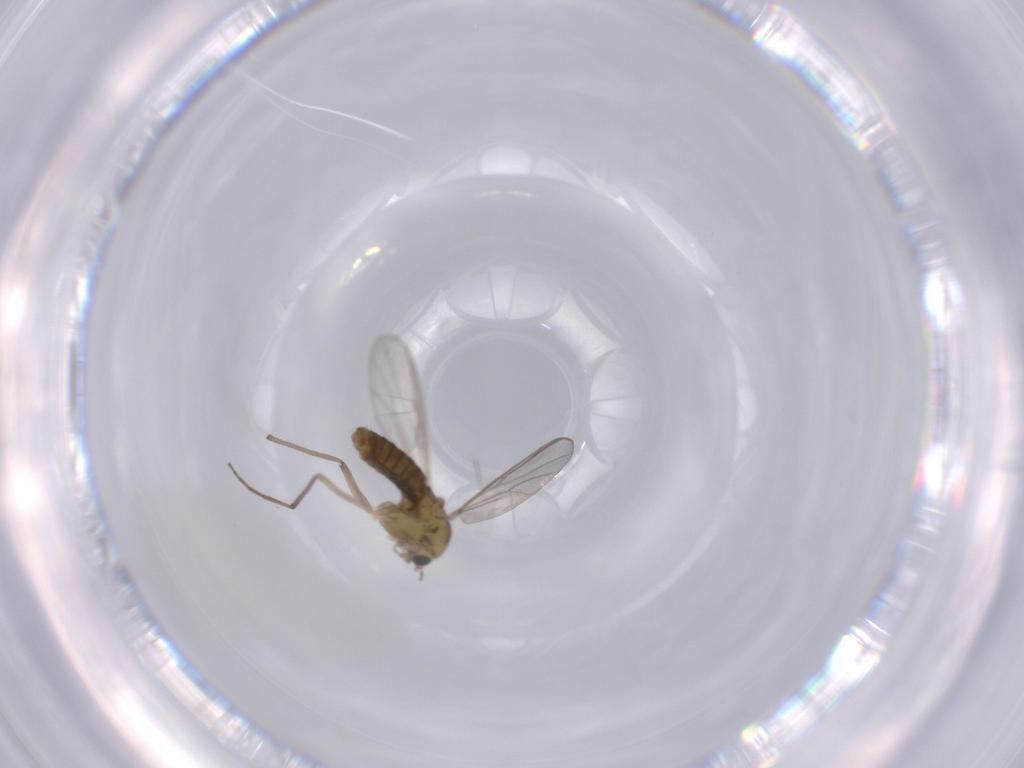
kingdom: Animalia
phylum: Arthropoda
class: Insecta
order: Diptera
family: Chironomidae
